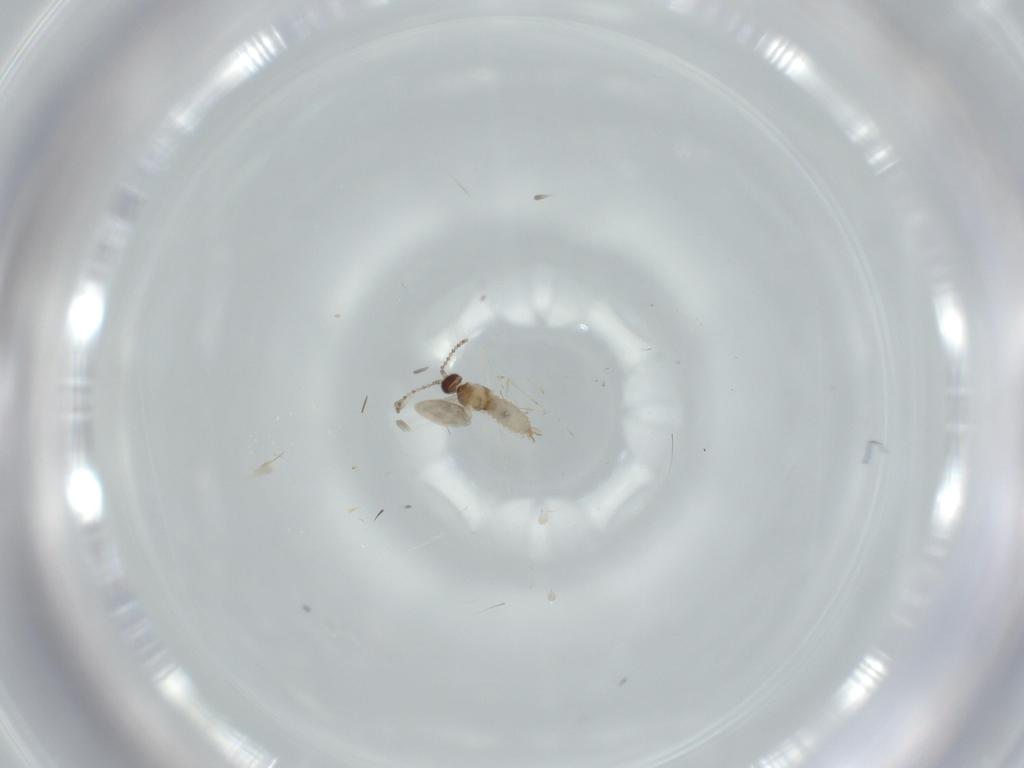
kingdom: Animalia
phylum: Arthropoda
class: Insecta
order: Diptera
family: Cecidomyiidae
